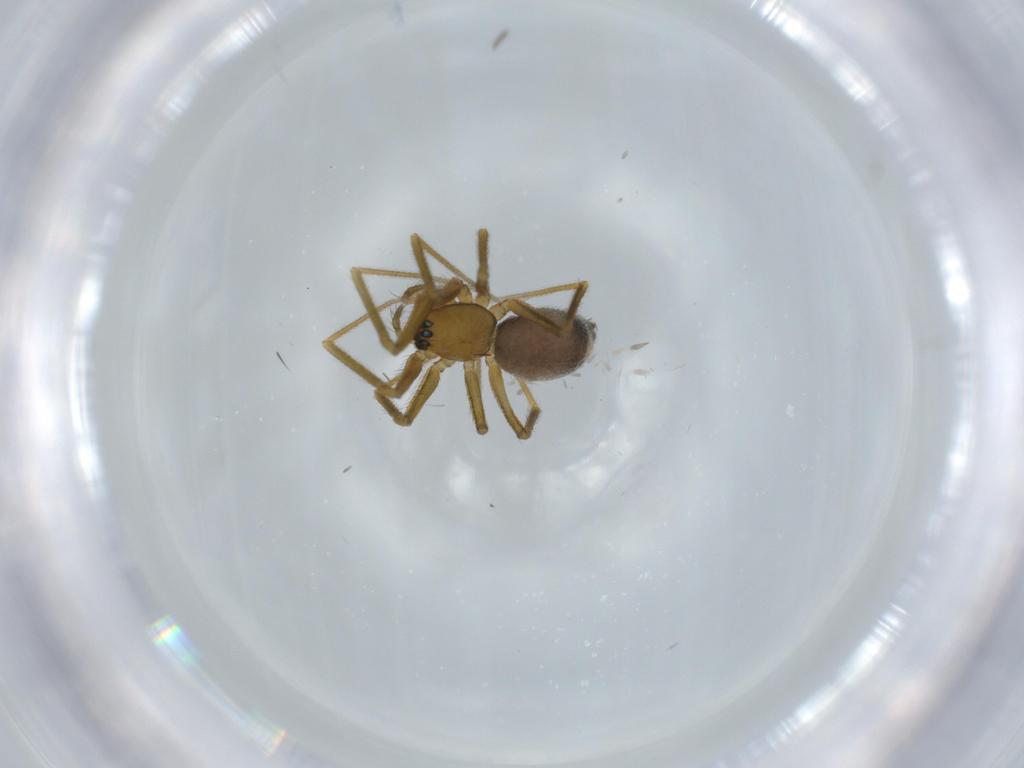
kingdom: Animalia
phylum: Arthropoda
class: Arachnida
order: Araneae
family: Linyphiidae
